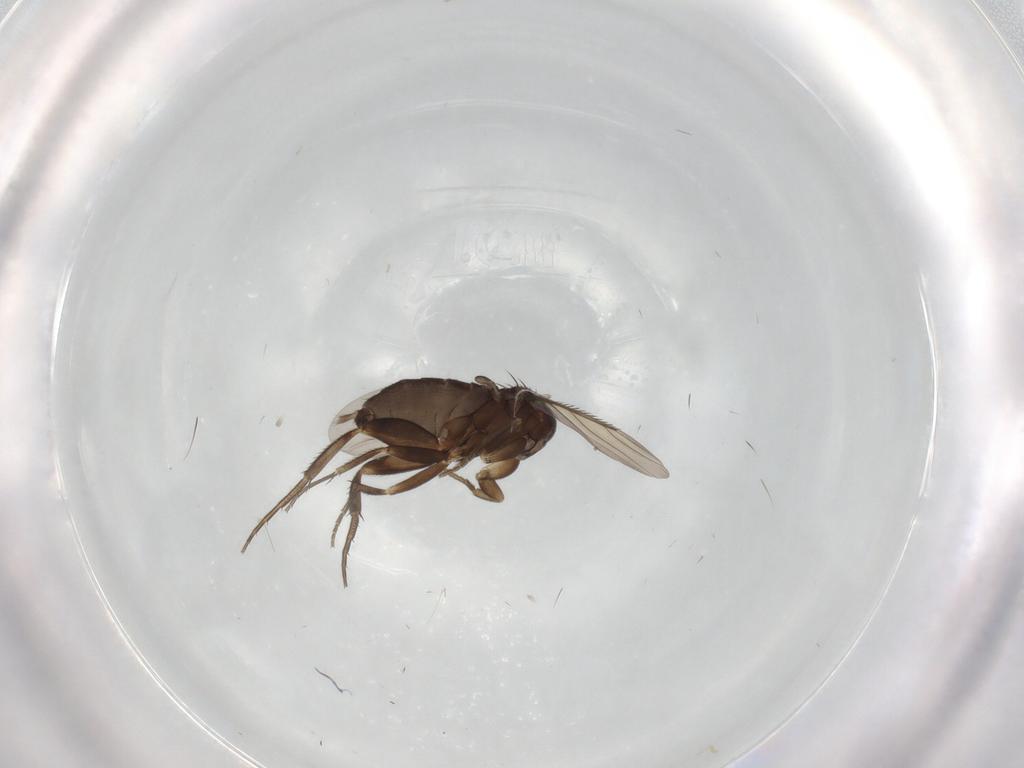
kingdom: Animalia
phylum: Arthropoda
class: Insecta
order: Diptera
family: Phoridae
